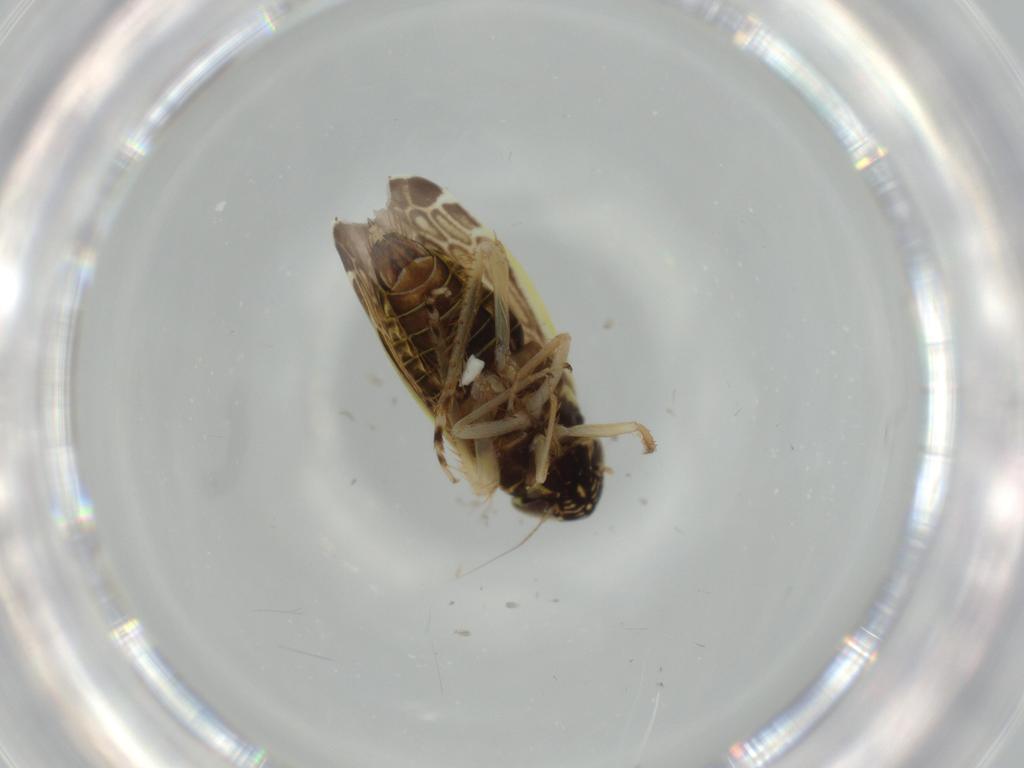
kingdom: Animalia
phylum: Arthropoda
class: Insecta
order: Hemiptera
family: Cicadellidae
